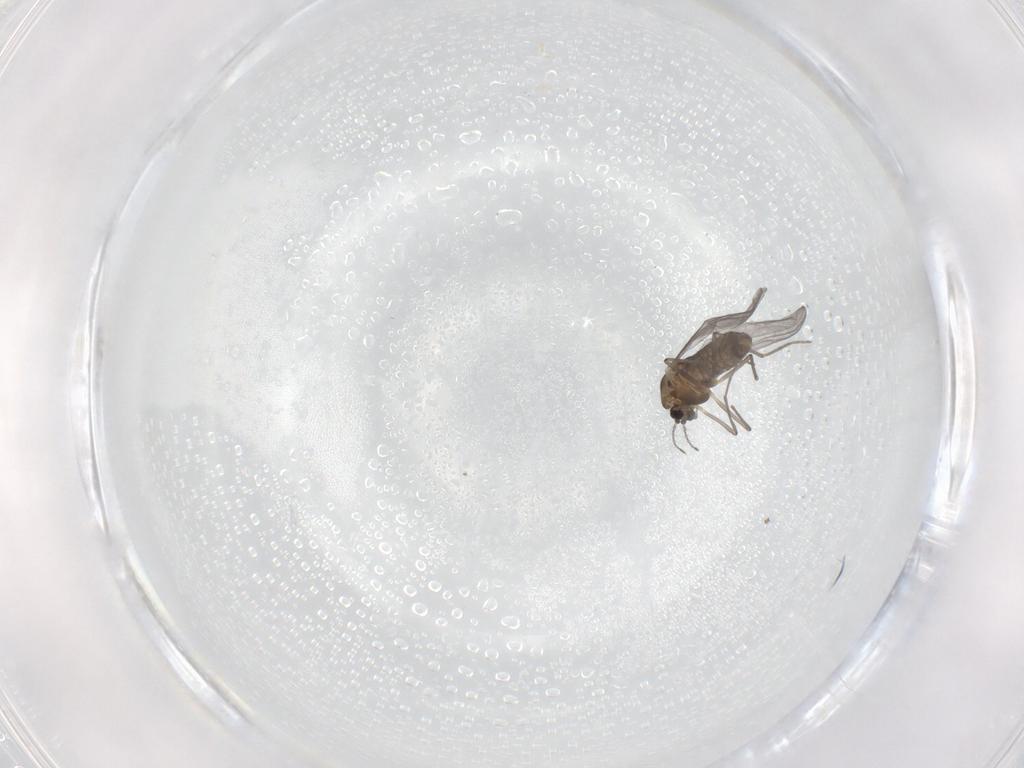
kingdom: Animalia
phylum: Arthropoda
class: Insecta
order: Diptera
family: Chironomidae
